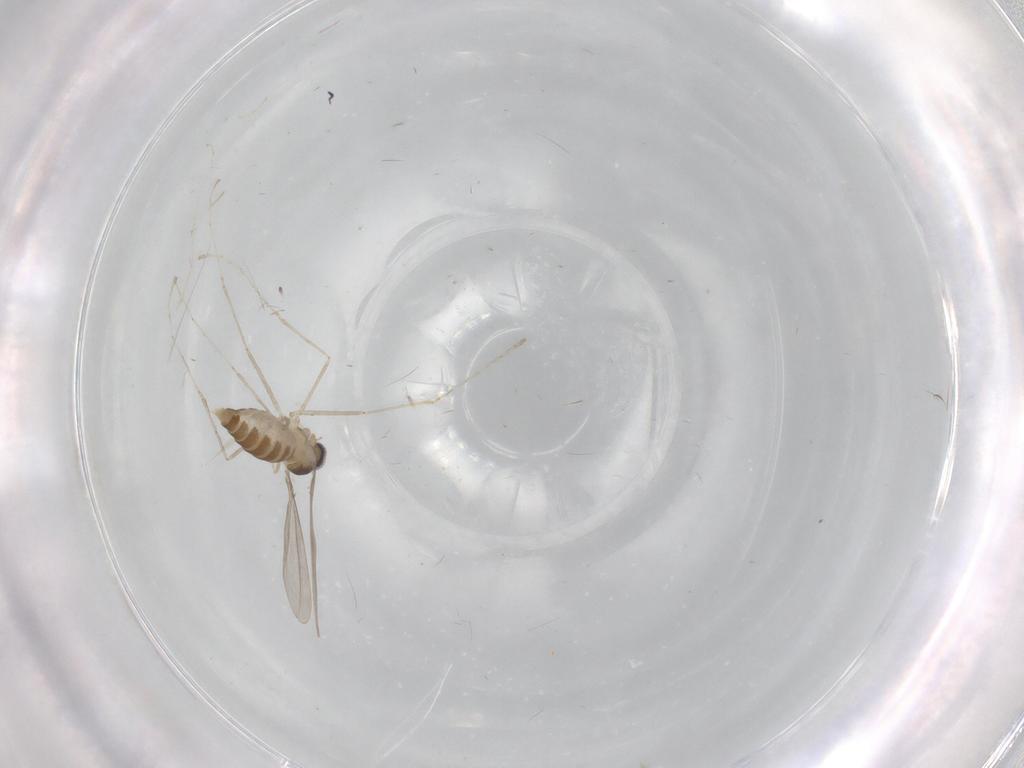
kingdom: Animalia
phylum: Arthropoda
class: Insecta
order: Diptera
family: Cecidomyiidae
